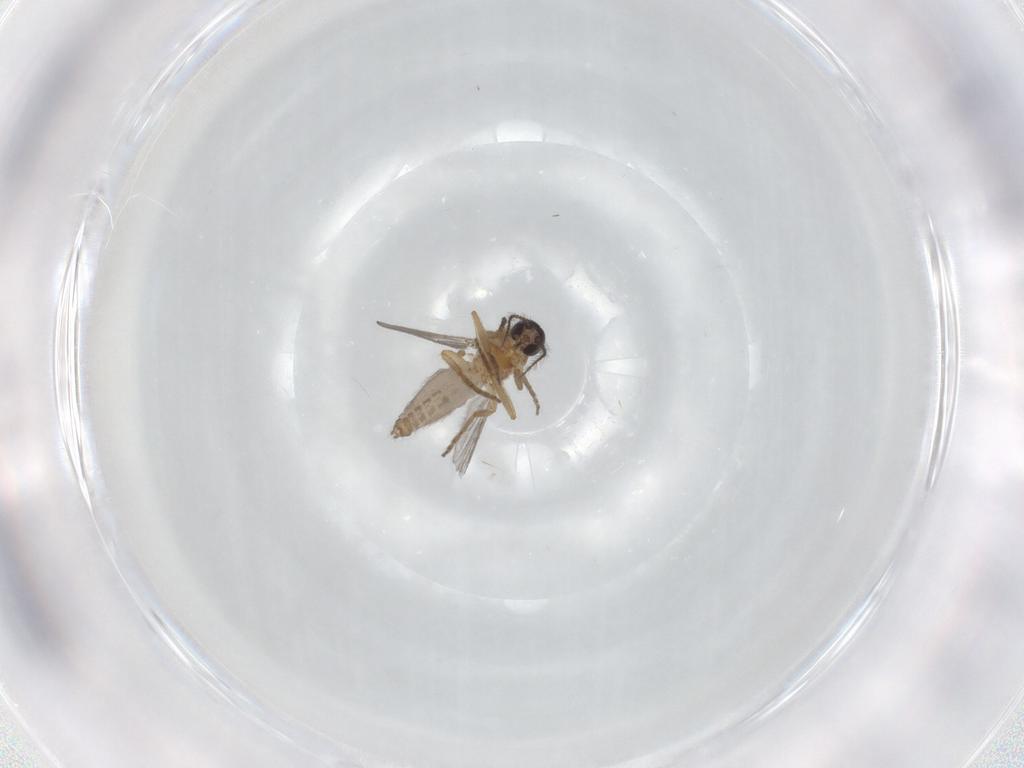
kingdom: Animalia
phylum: Arthropoda
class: Insecta
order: Diptera
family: Ceratopogonidae
